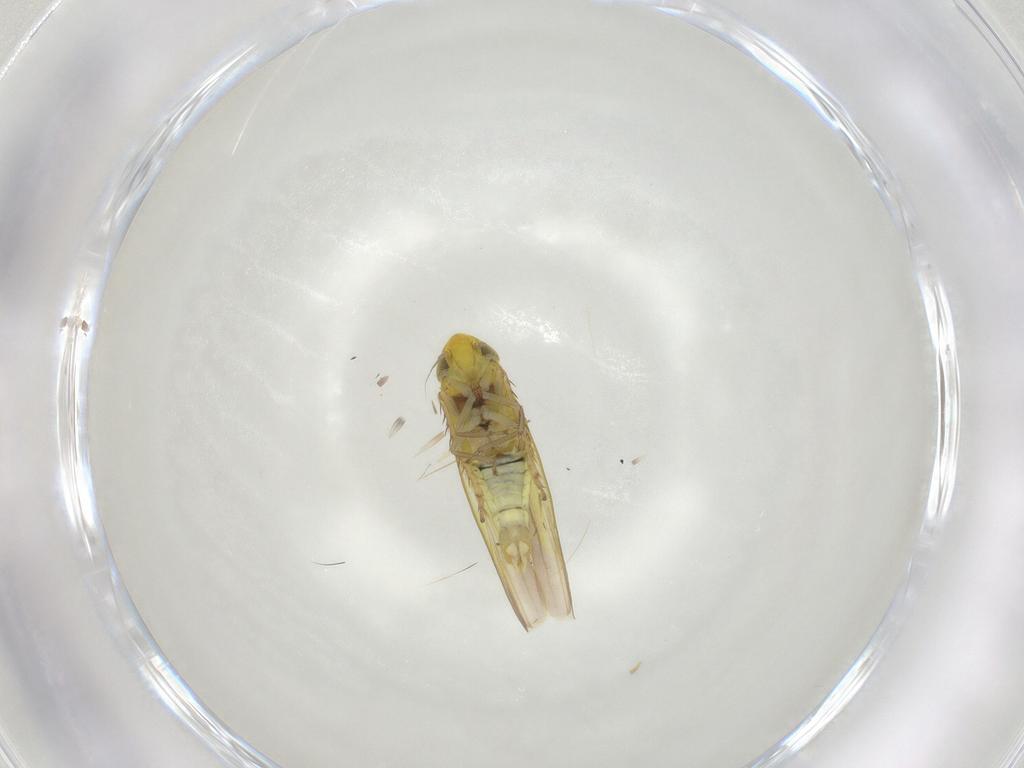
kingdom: Animalia
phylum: Arthropoda
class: Insecta
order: Hemiptera
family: Cicadellidae
